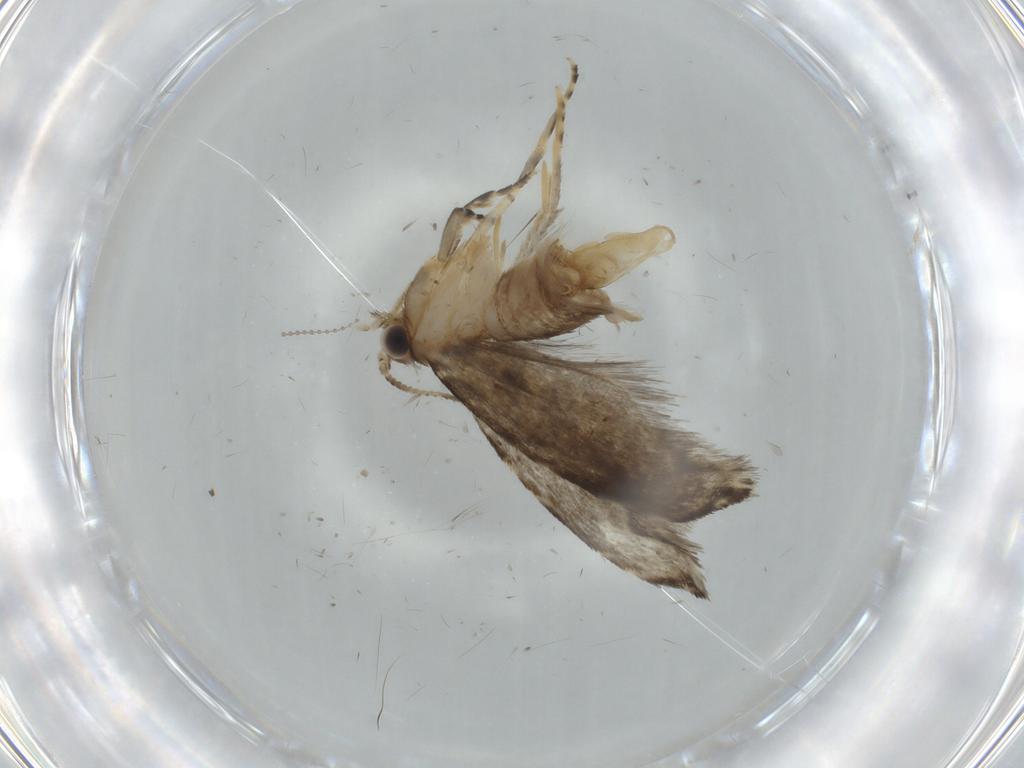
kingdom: Animalia
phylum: Arthropoda
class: Insecta
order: Lepidoptera
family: Tineidae
